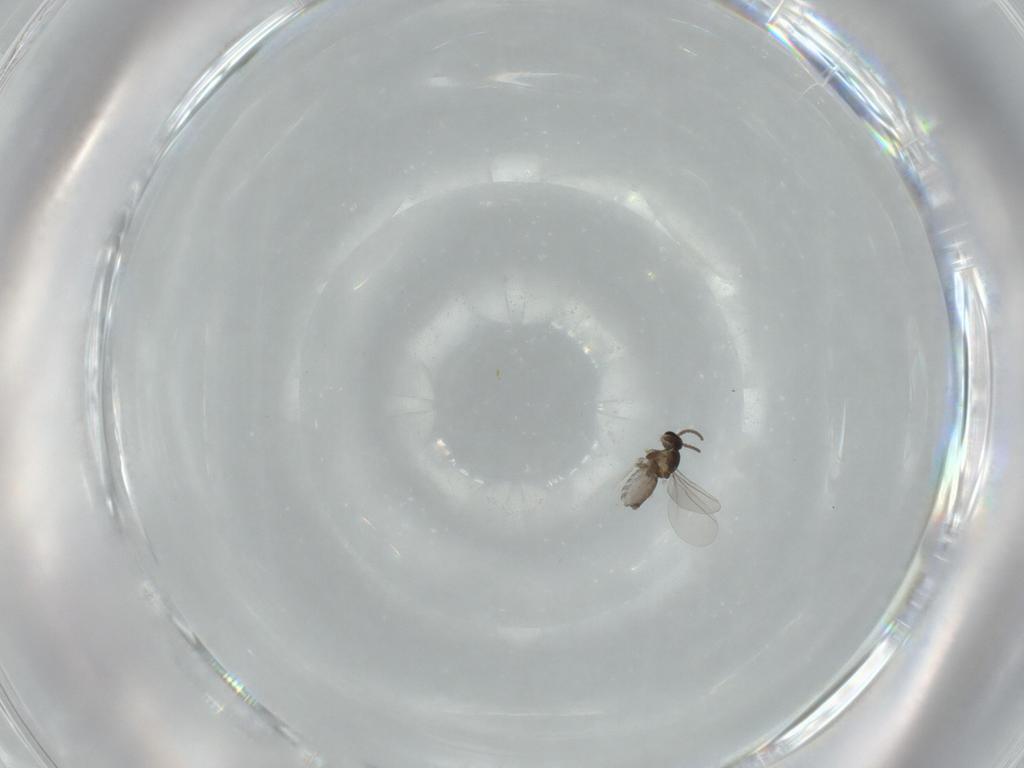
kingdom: Animalia
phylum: Arthropoda
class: Insecta
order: Diptera
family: Cecidomyiidae
